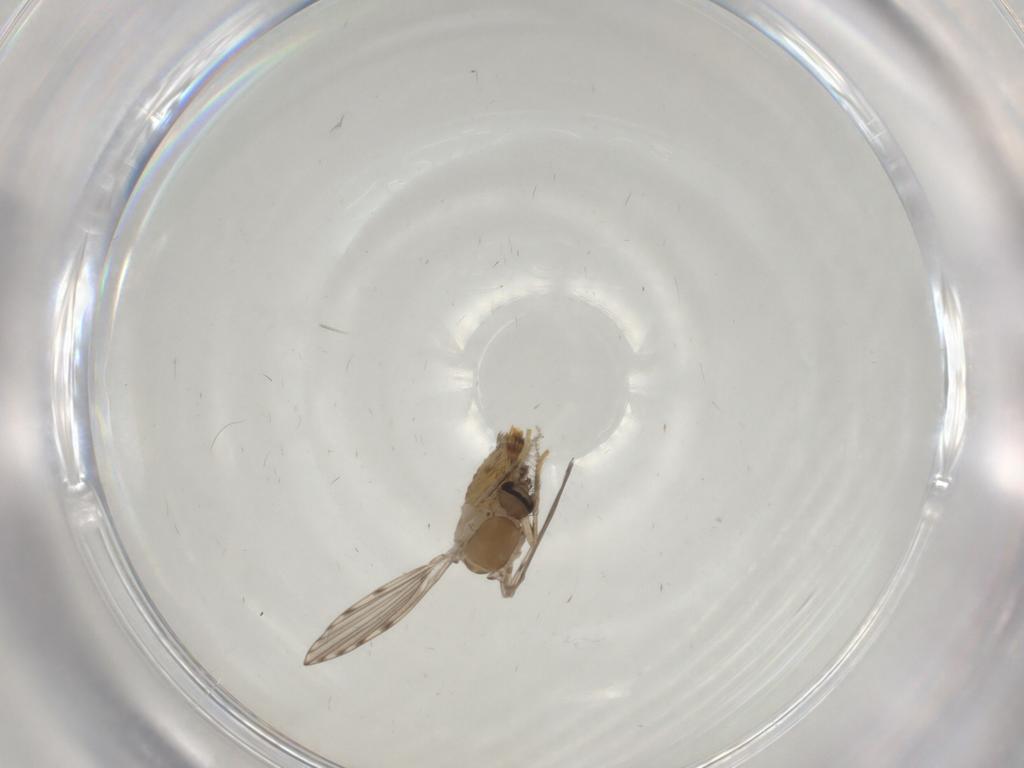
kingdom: Animalia
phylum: Arthropoda
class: Insecta
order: Diptera
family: Psychodidae
